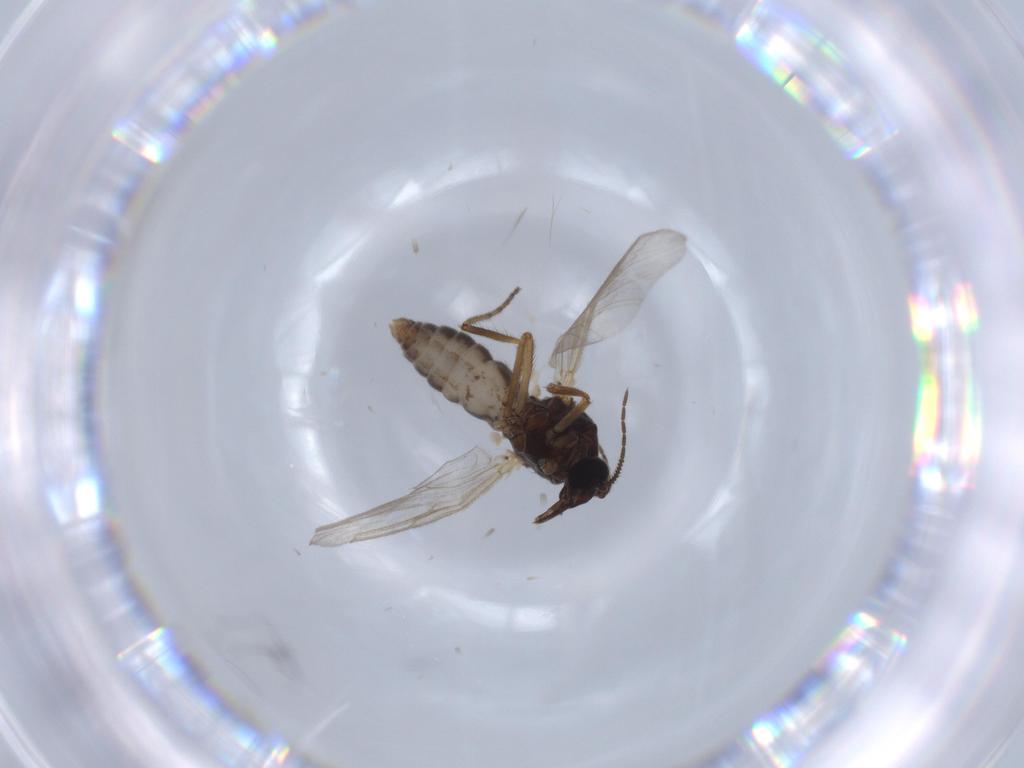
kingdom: Animalia
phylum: Arthropoda
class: Insecta
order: Diptera
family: Ceratopogonidae
